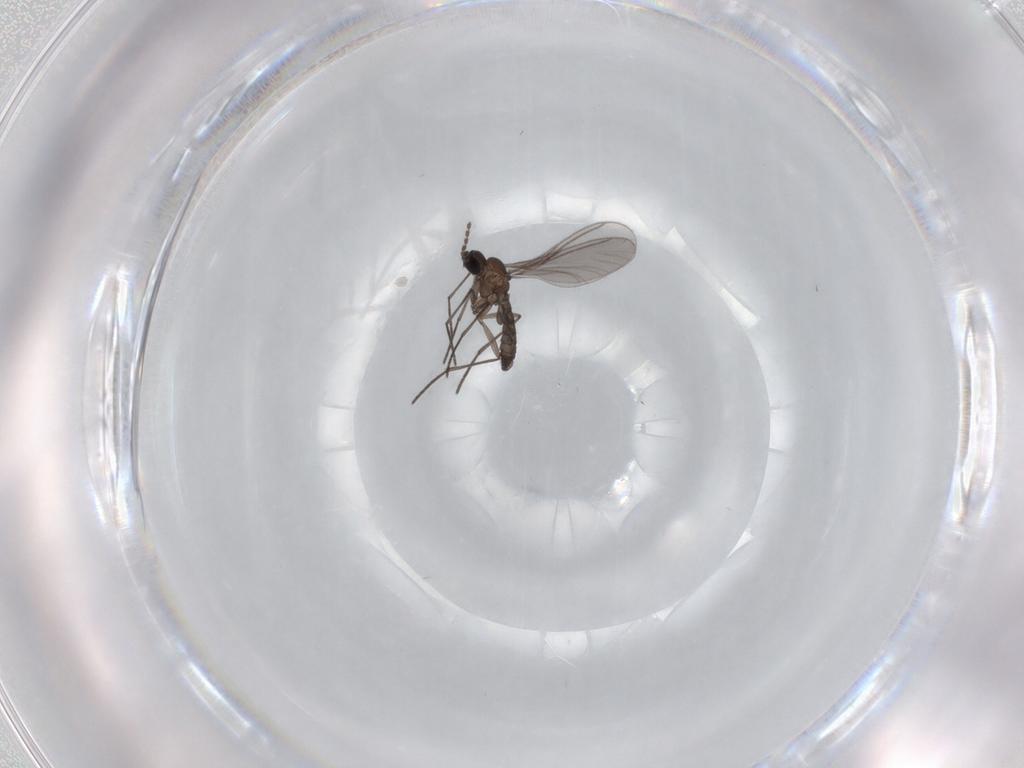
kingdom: Animalia
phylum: Arthropoda
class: Insecta
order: Diptera
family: Sciaridae
